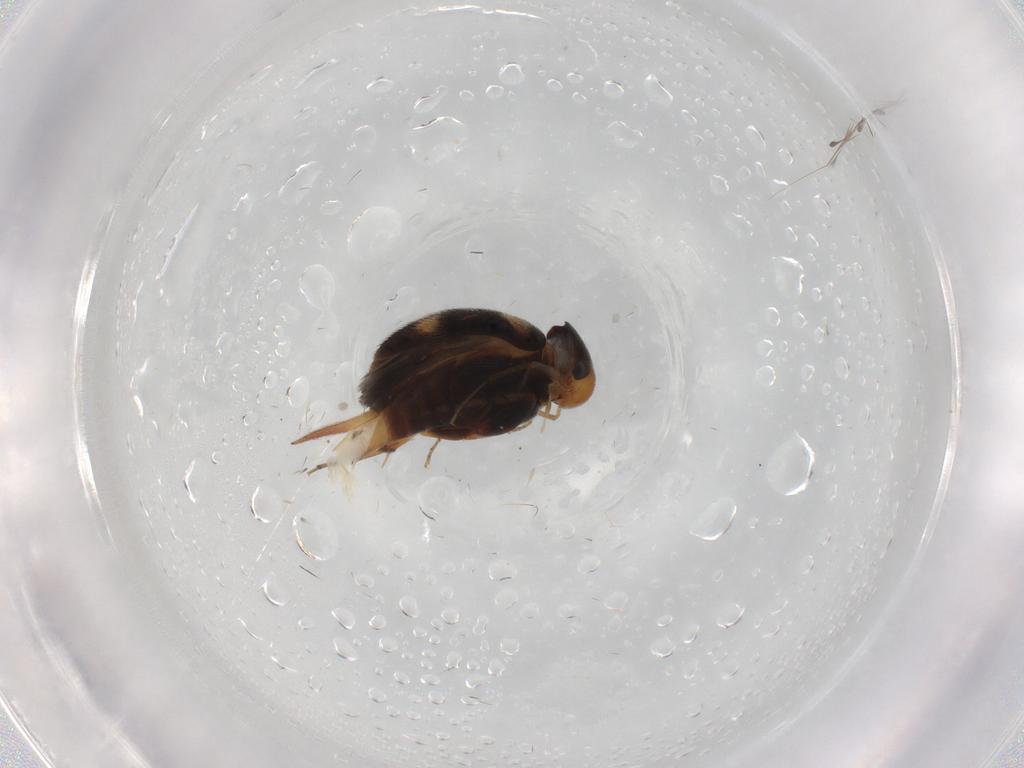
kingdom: Animalia
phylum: Arthropoda
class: Insecta
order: Coleoptera
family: Mordellidae
